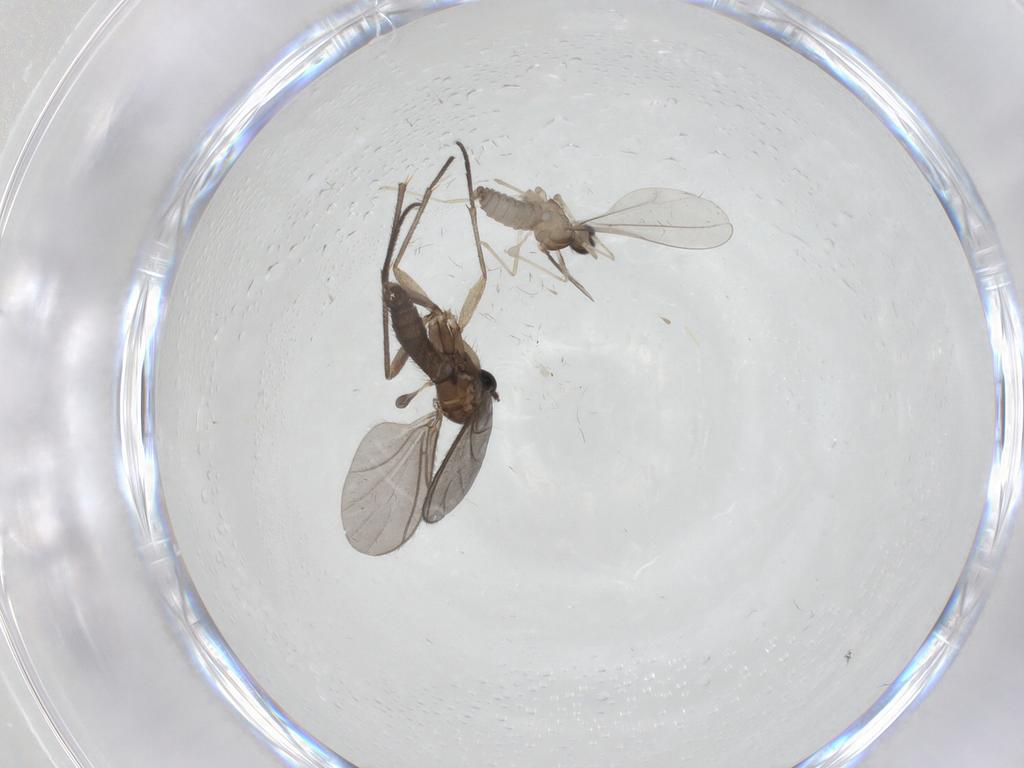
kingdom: Animalia
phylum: Arthropoda
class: Insecta
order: Diptera
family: Sciaridae
